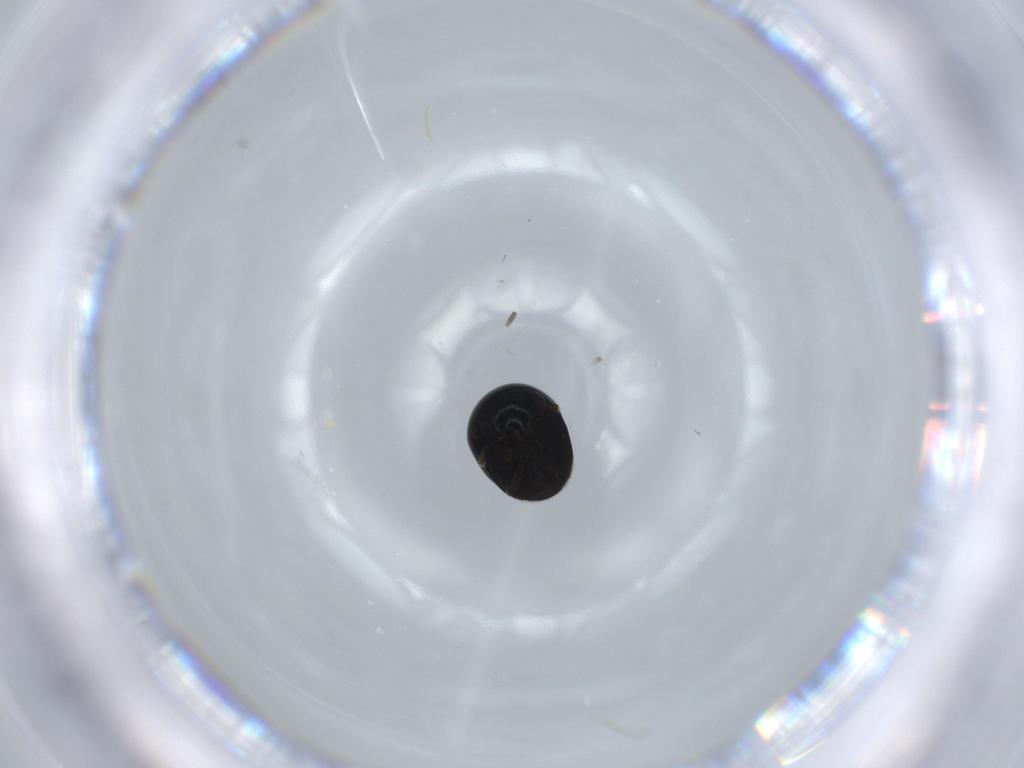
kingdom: Animalia
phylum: Arthropoda
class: Insecta
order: Coleoptera
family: Cybocephalidae
